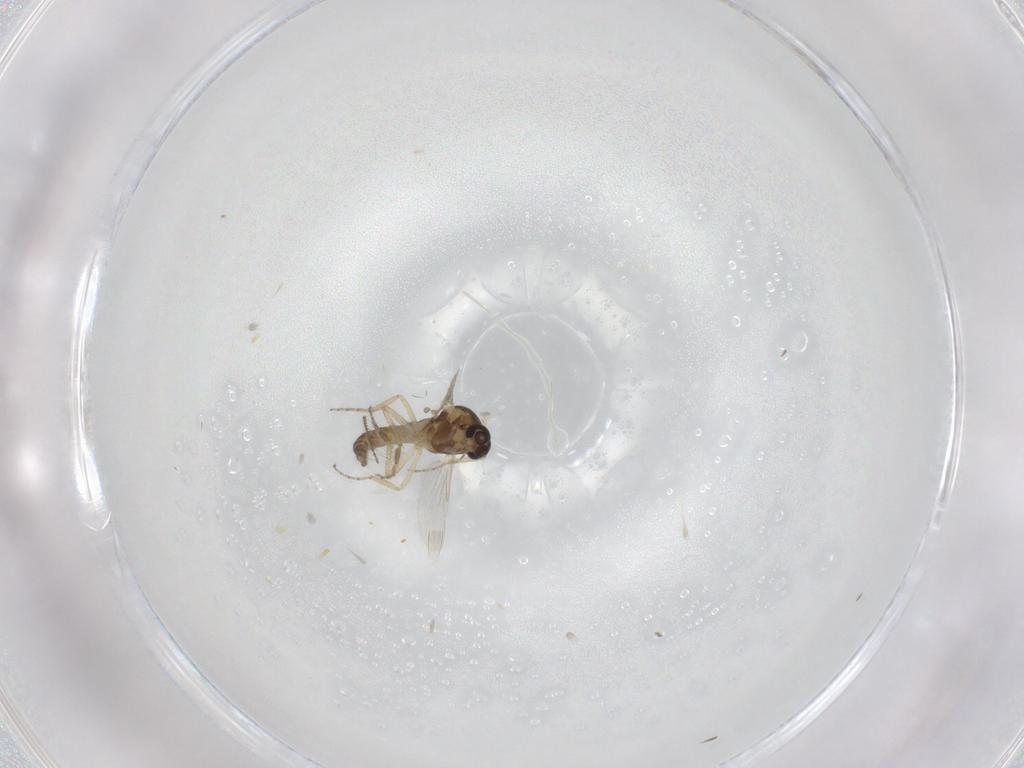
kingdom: Animalia
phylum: Arthropoda
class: Insecta
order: Diptera
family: Ceratopogonidae
